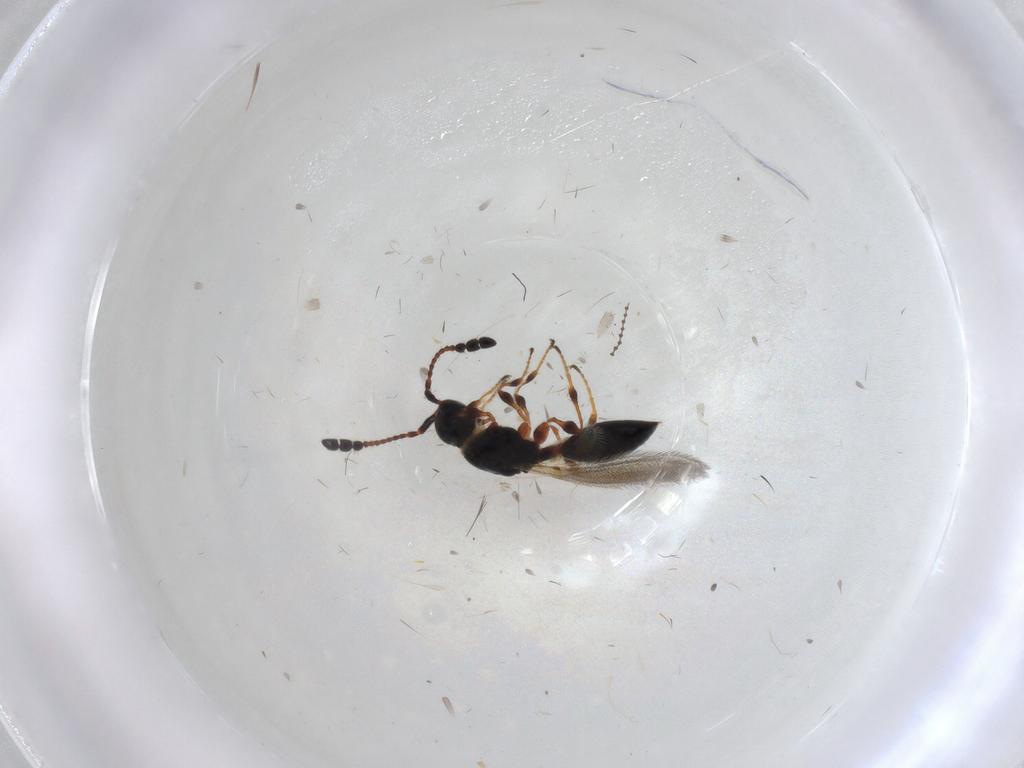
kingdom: Animalia
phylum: Arthropoda
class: Insecta
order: Hymenoptera
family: Diapriidae
